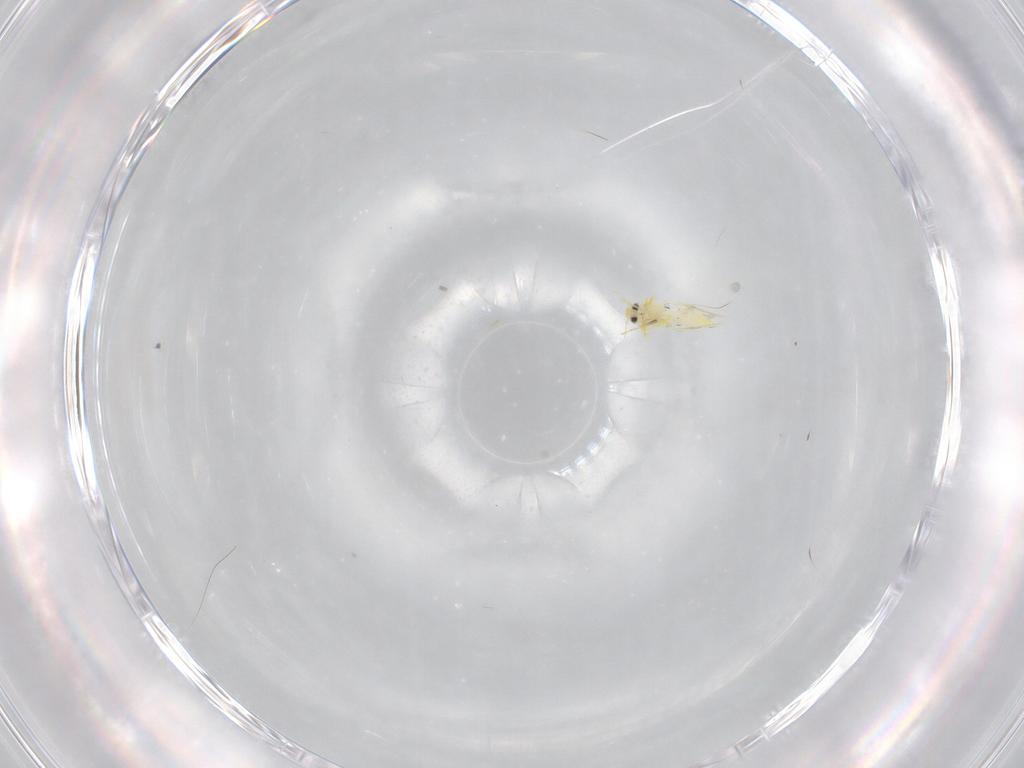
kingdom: Animalia
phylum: Arthropoda
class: Insecta
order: Hemiptera
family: Aleyrodidae
